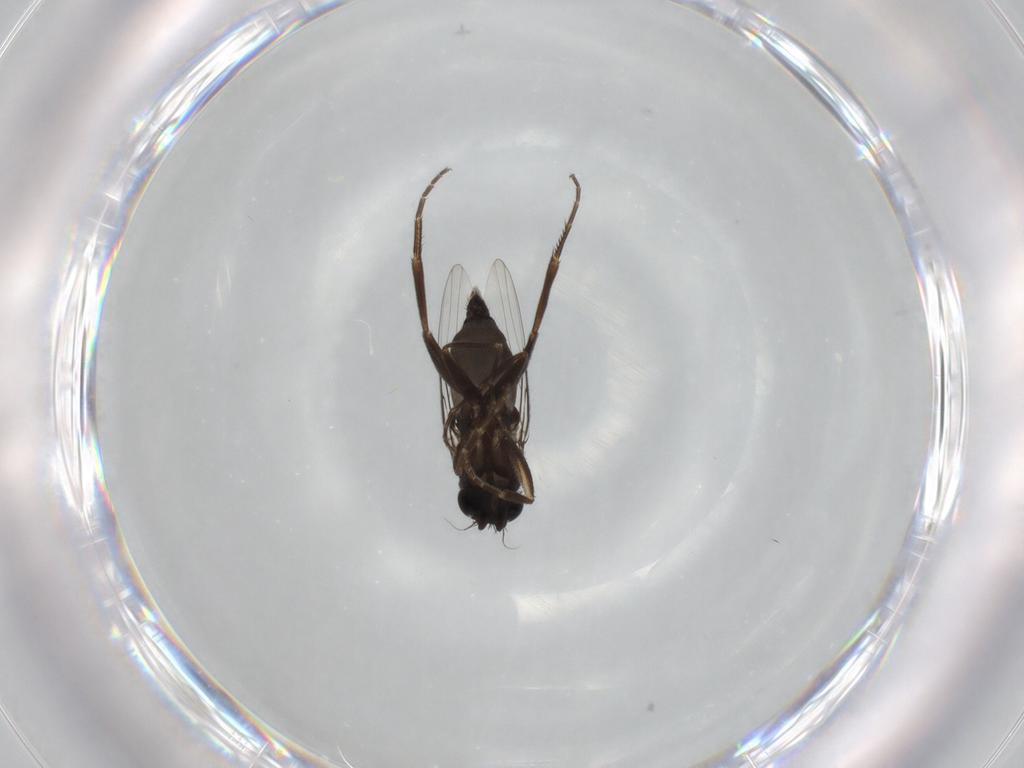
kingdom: Animalia
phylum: Arthropoda
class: Insecta
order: Diptera
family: Phoridae
